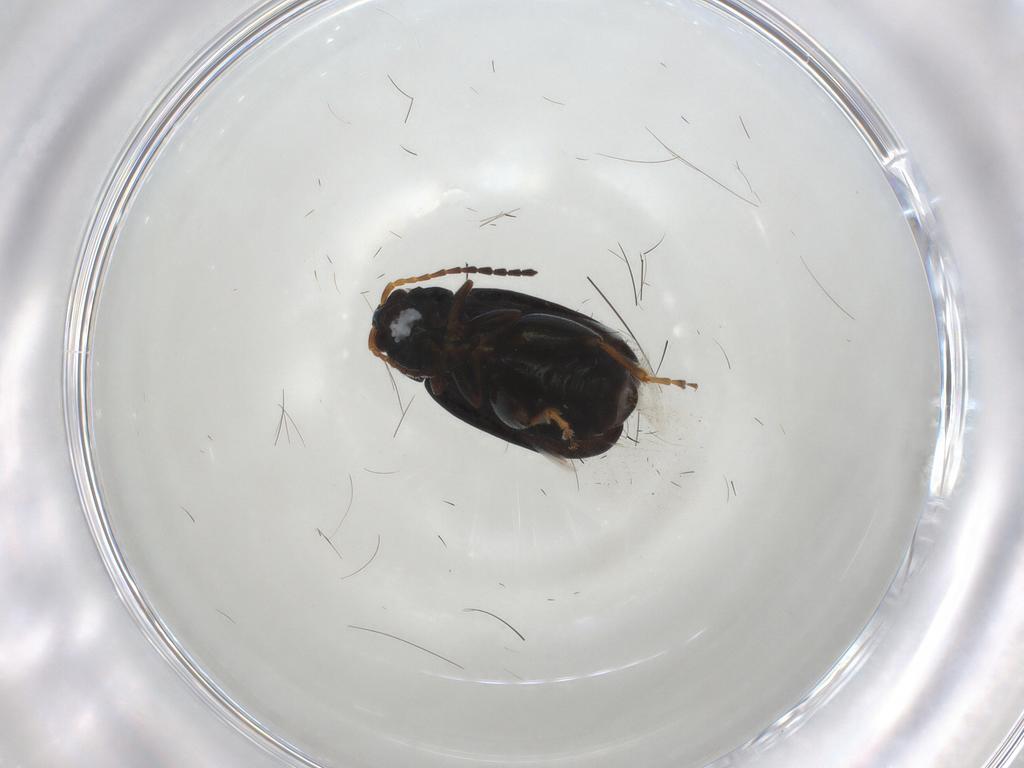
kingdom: Animalia
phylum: Arthropoda
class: Insecta
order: Coleoptera
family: Chrysomelidae
